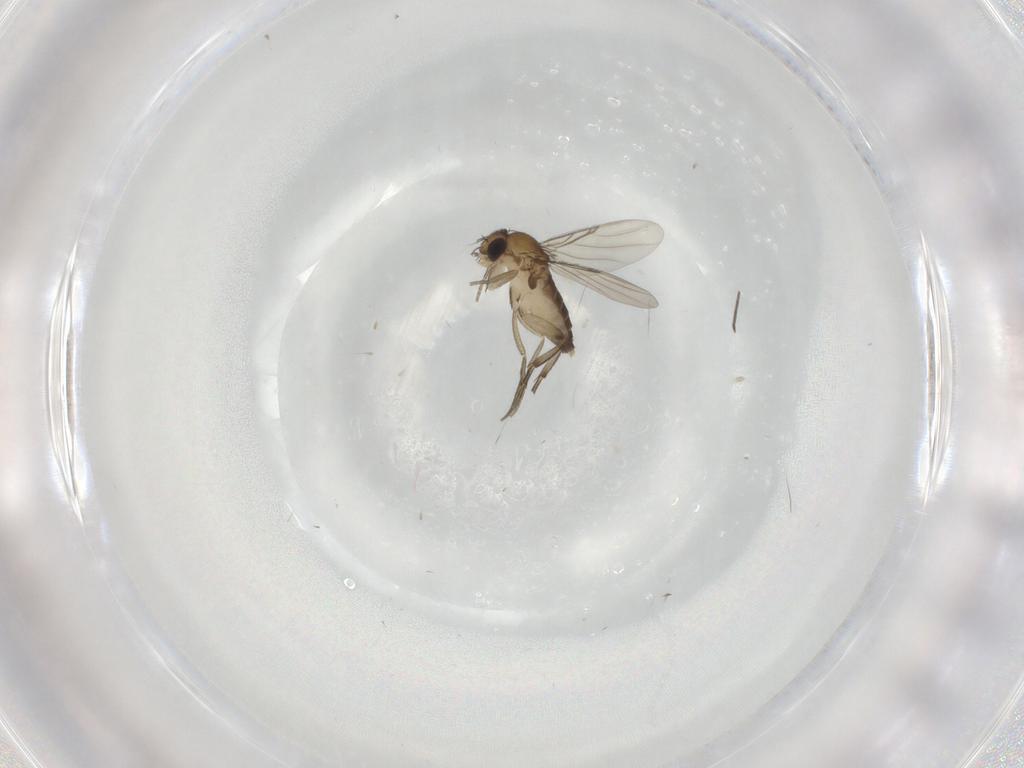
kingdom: Animalia
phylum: Arthropoda
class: Insecta
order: Diptera
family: Phoridae
